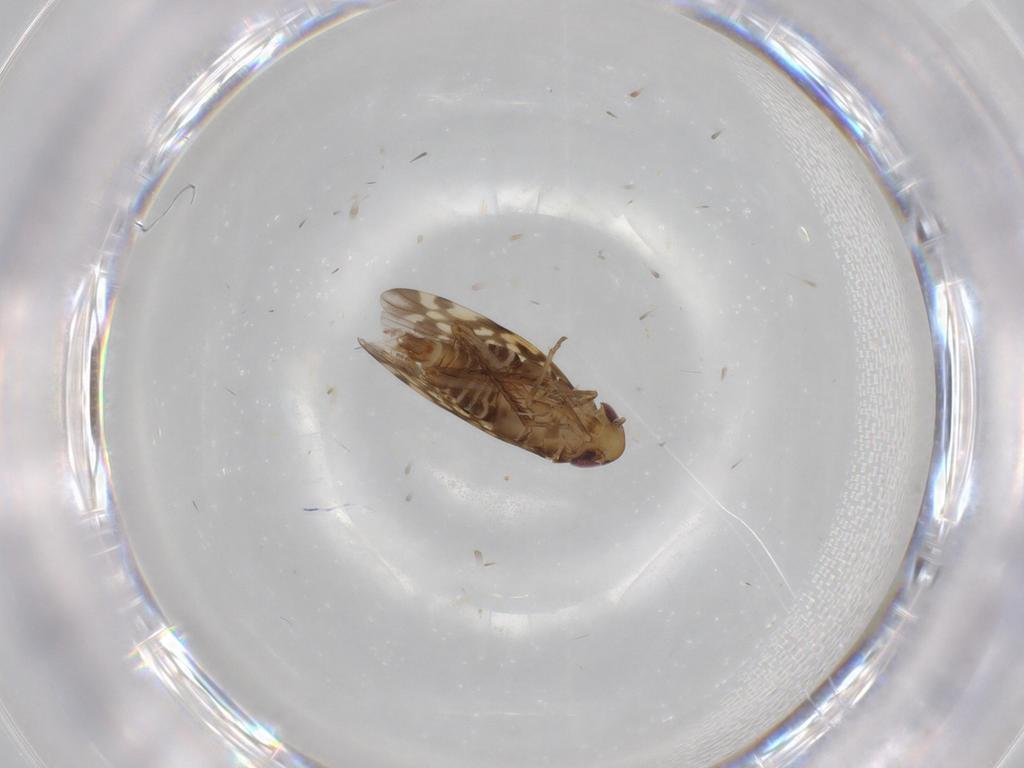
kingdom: Animalia
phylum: Arthropoda
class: Insecta
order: Hemiptera
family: Cicadellidae
